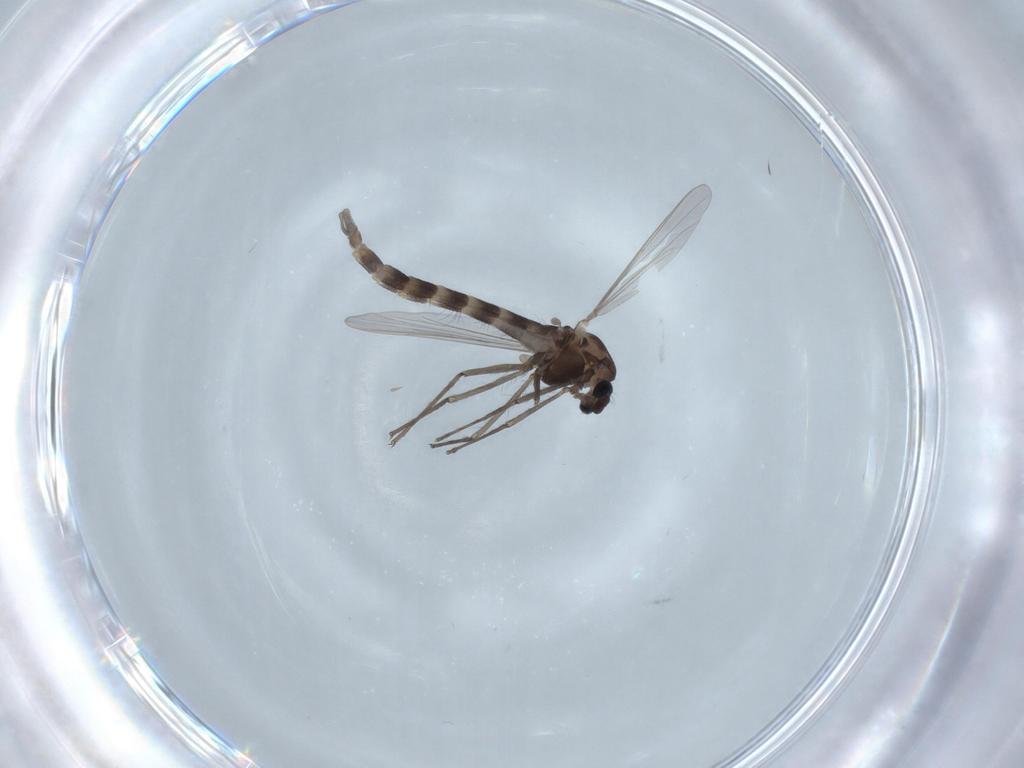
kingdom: Animalia
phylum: Arthropoda
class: Insecta
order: Diptera
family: Chironomidae
